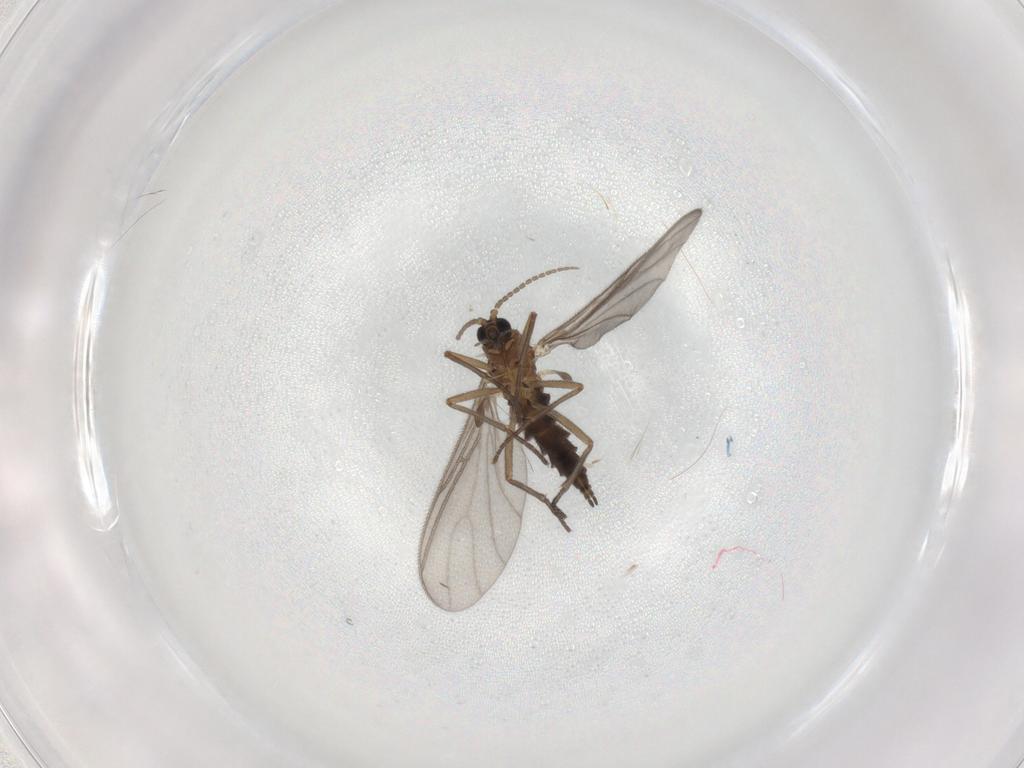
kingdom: Animalia
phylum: Arthropoda
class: Insecta
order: Diptera
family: Sciaridae
